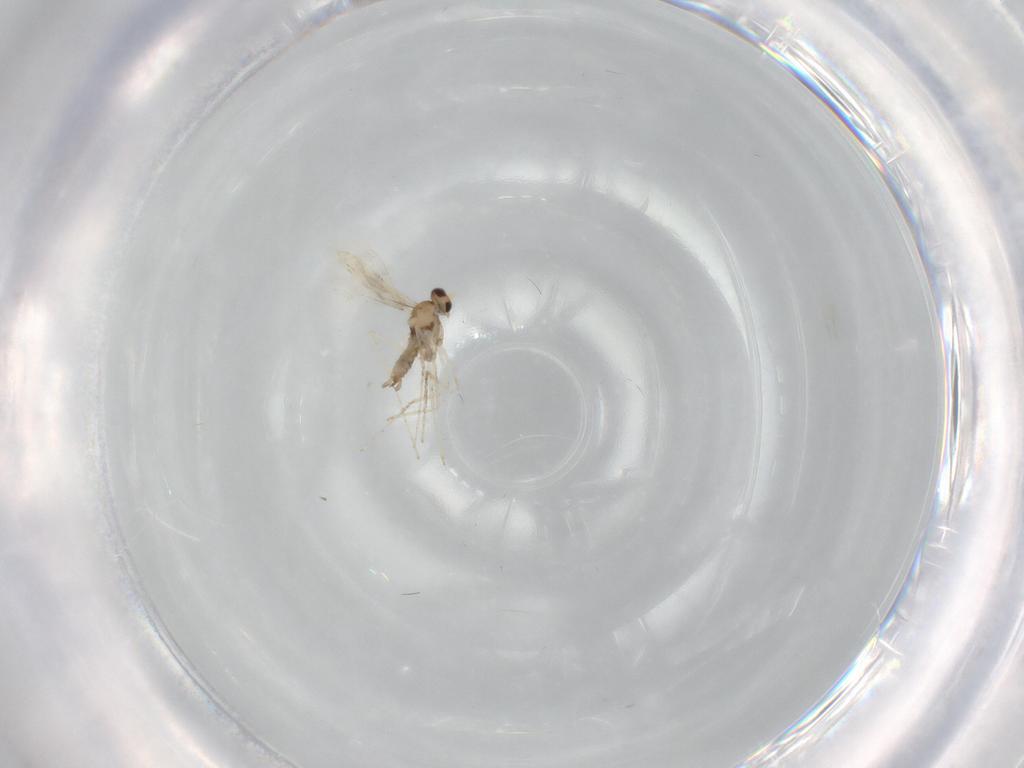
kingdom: Animalia
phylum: Arthropoda
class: Insecta
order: Diptera
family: Cecidomyiidae
